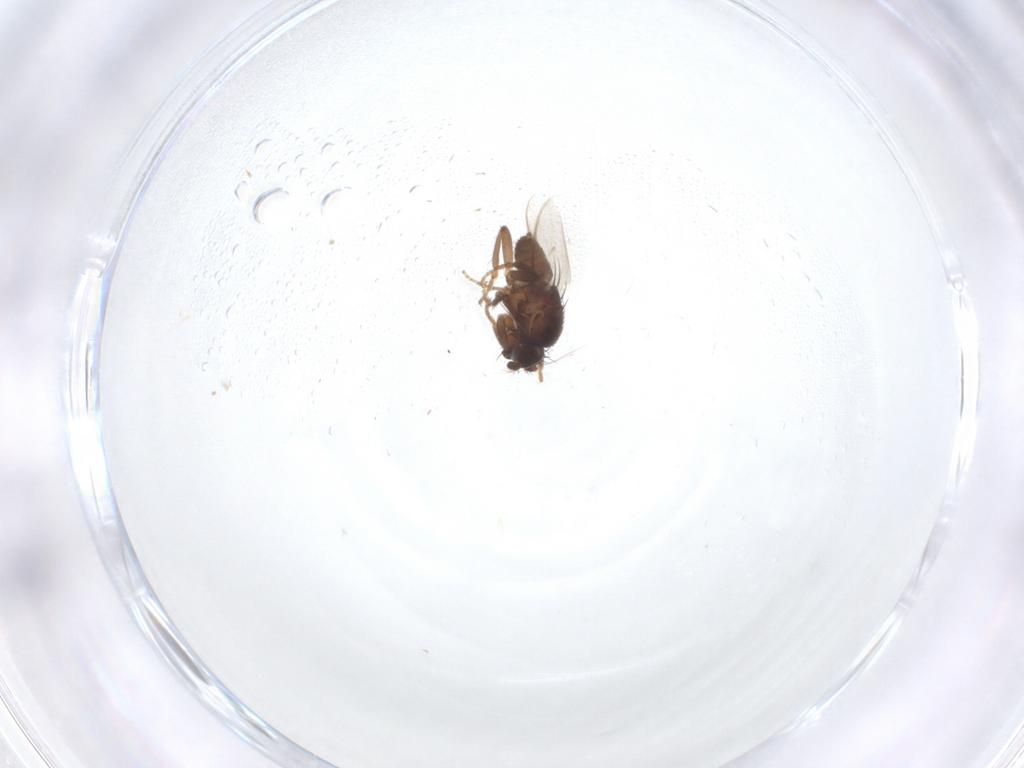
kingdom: Animalia
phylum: Arthropoda
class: Insecta
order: Diptera
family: Sphaeroceridae
